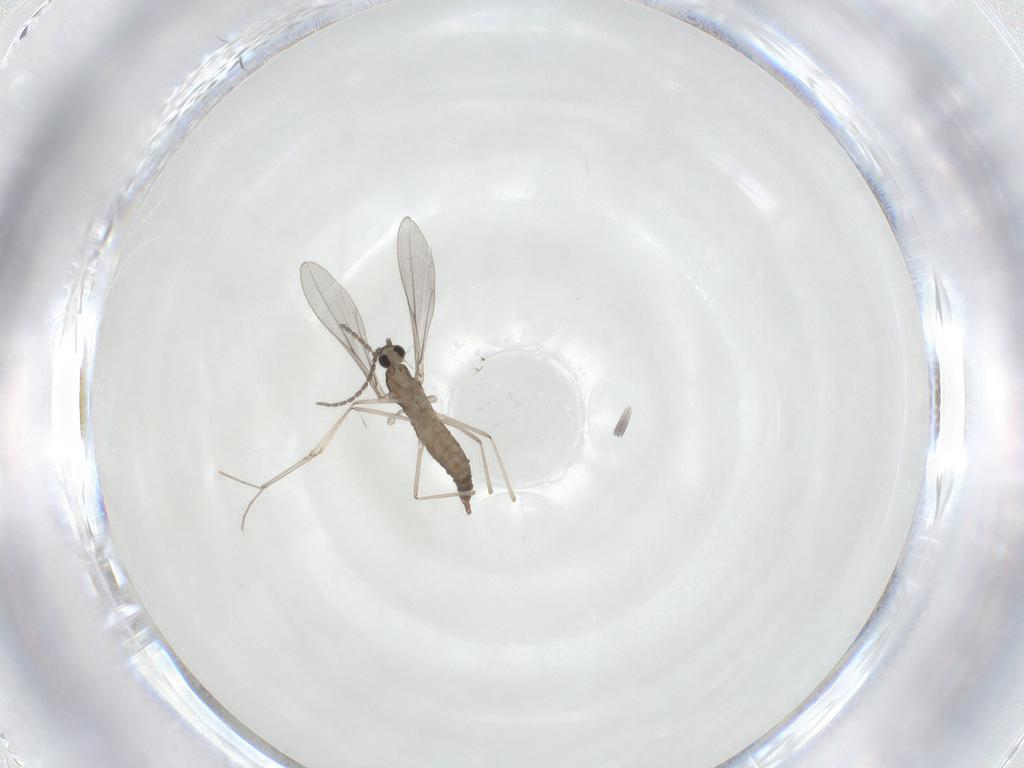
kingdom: Animalia
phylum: Arthropoda
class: Insecta
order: Diptera
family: Cecidomyiidae
